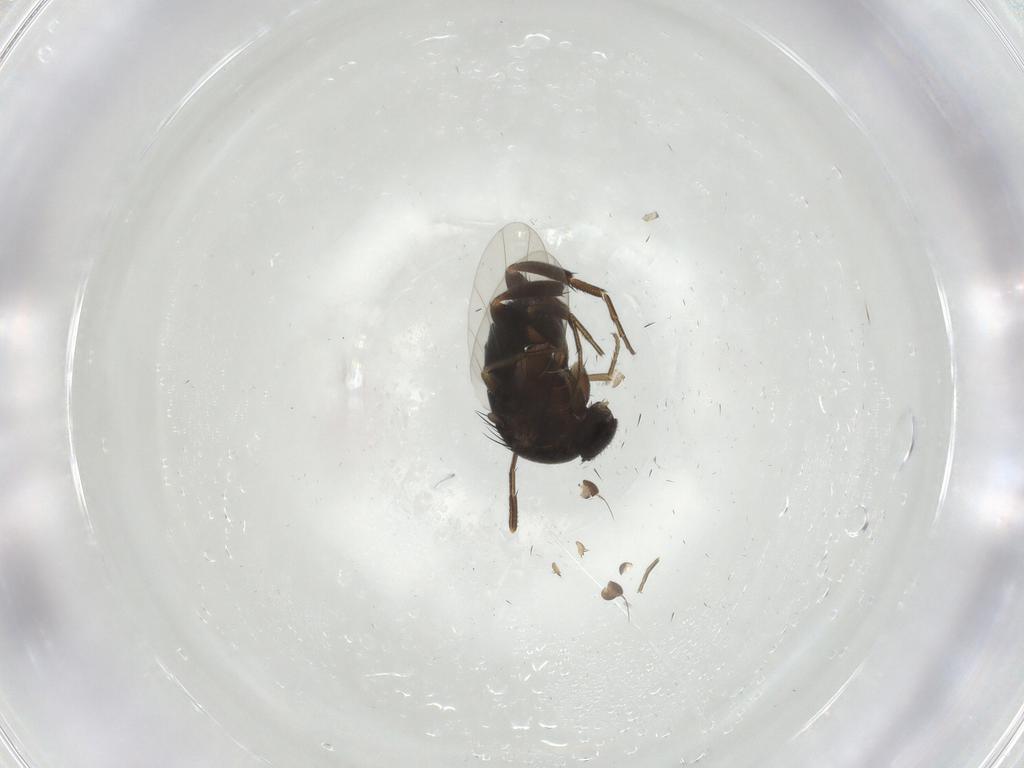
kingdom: Animalia
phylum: Arthropoda
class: Insecta
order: Diptera
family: Phoridae
